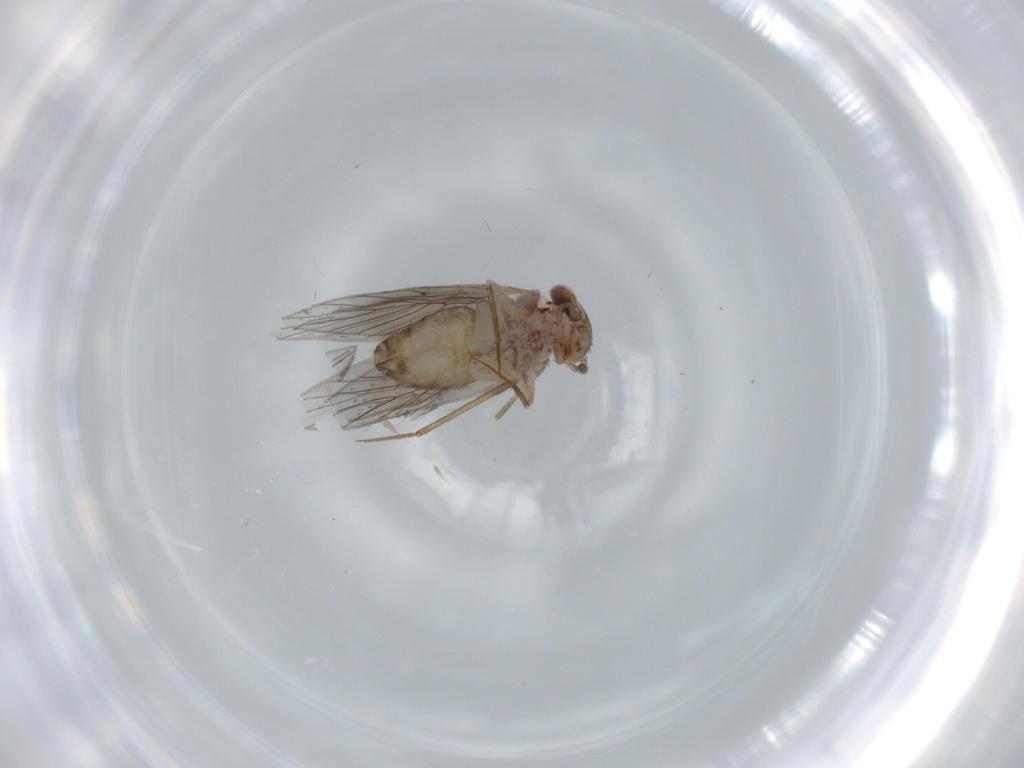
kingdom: Animalia
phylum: Arthropoda
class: Insecta
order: Psocodea
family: Lepidopsocidae
